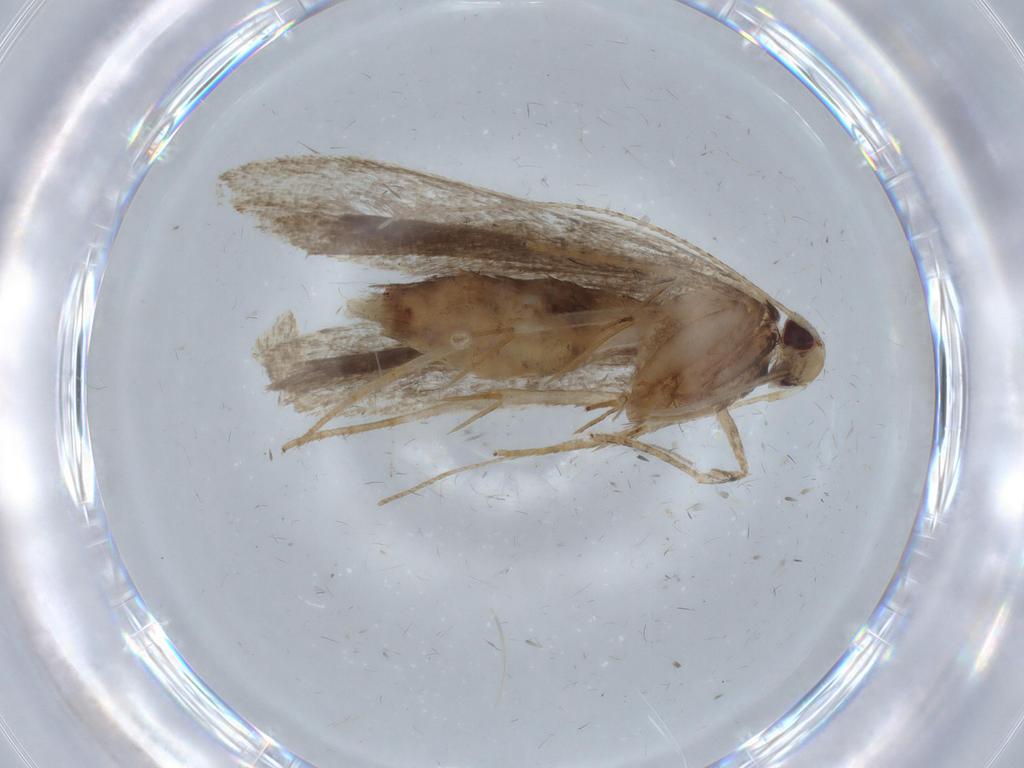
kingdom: Animalia
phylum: Arthropoda
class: Insecta
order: Lepidoptera
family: Gelechiidae
